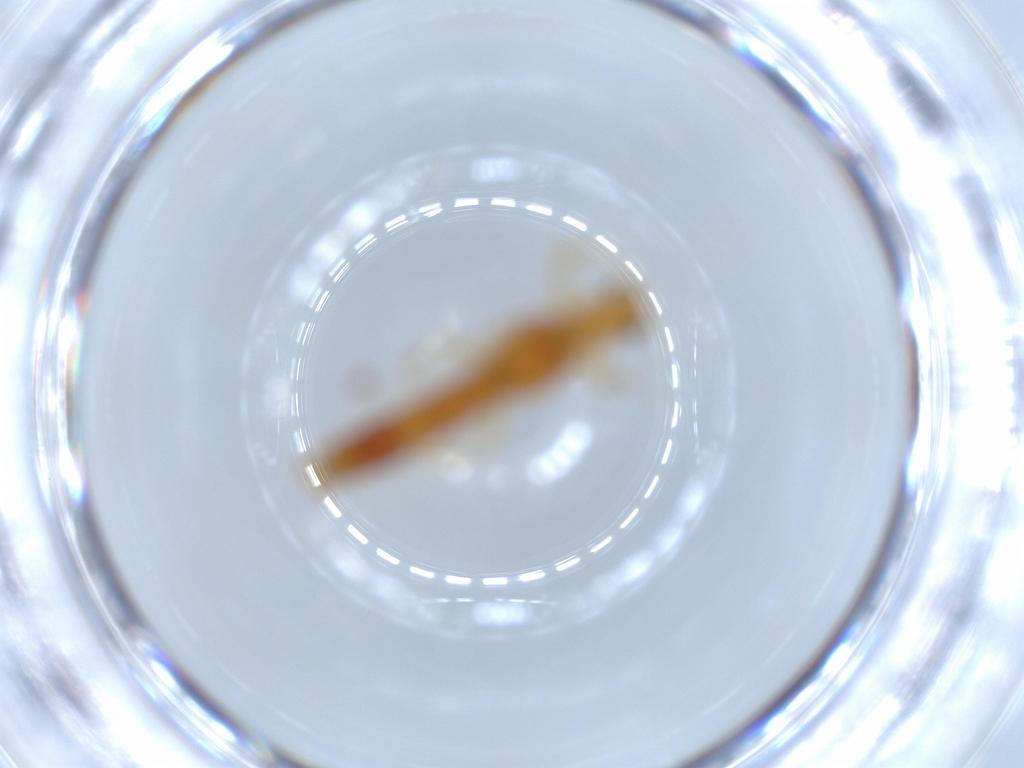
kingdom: Animalia
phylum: Arthropoda
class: Insecta
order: Coleoptera
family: Staphylinidae
